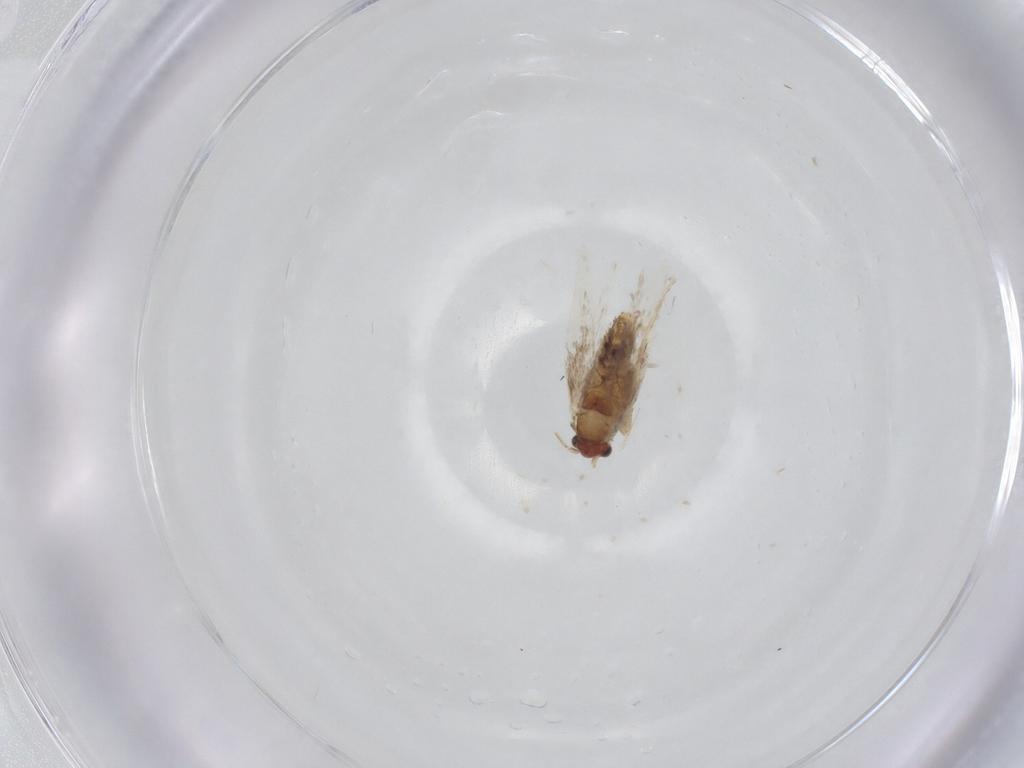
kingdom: Animalia
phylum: Arthropoda
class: Insecta
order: Lepidoptera
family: Nepticulidae
